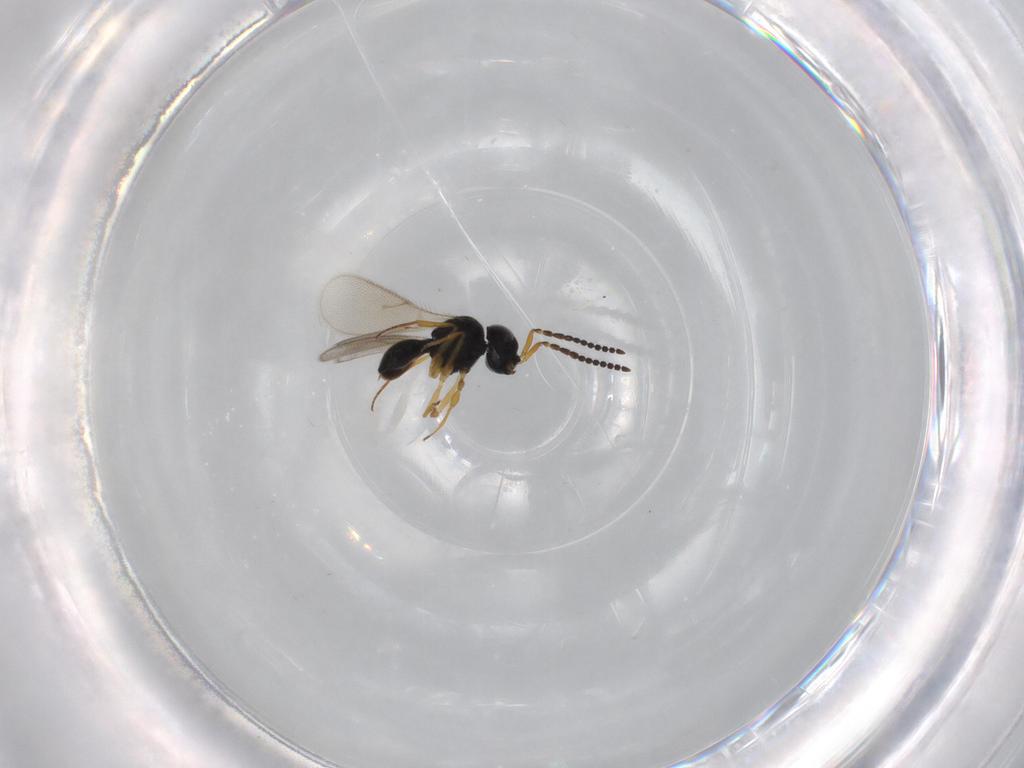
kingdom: Animalia
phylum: Arthropoda
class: Insecta
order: Hymenoptera
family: Scelionidae
